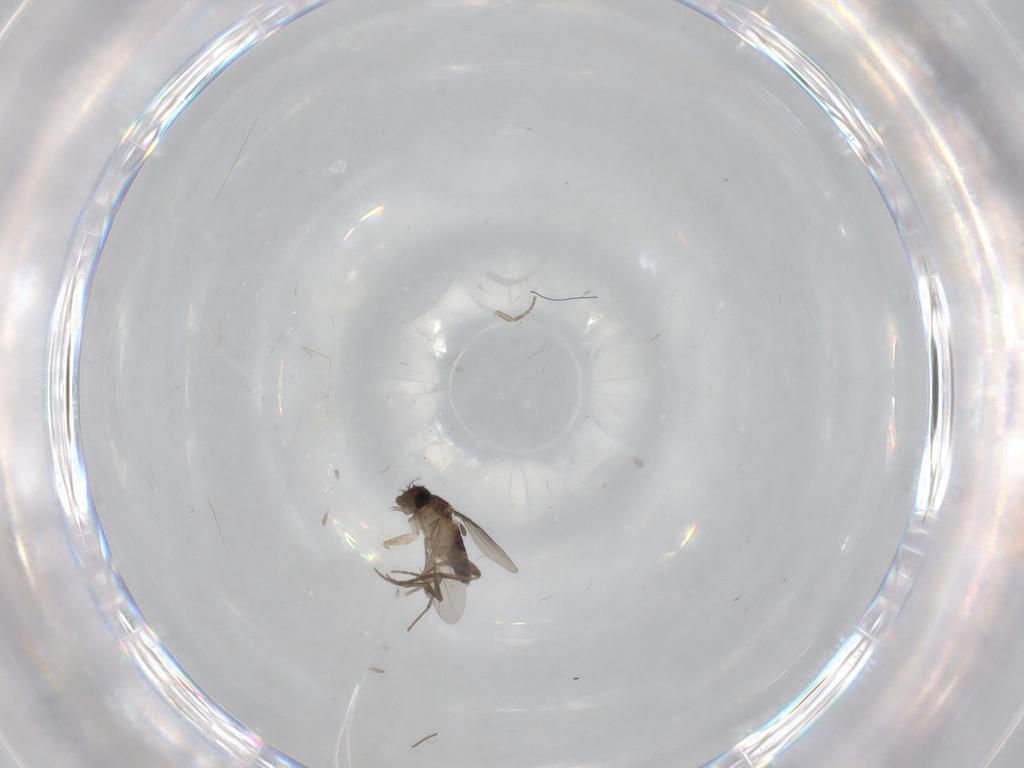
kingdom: Animalia
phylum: Arthropoda
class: Insecta
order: Diptera
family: Phoridae
